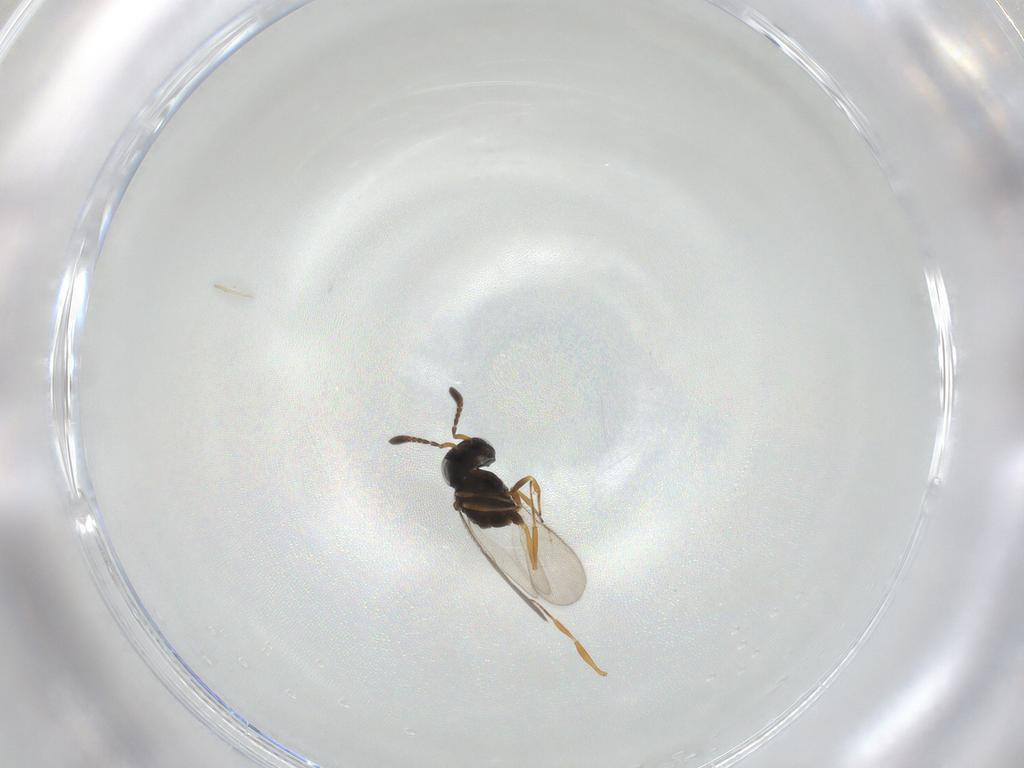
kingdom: Animalia
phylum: Arthropoda
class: Insecta
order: Hymenoptera
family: Scelionidae
